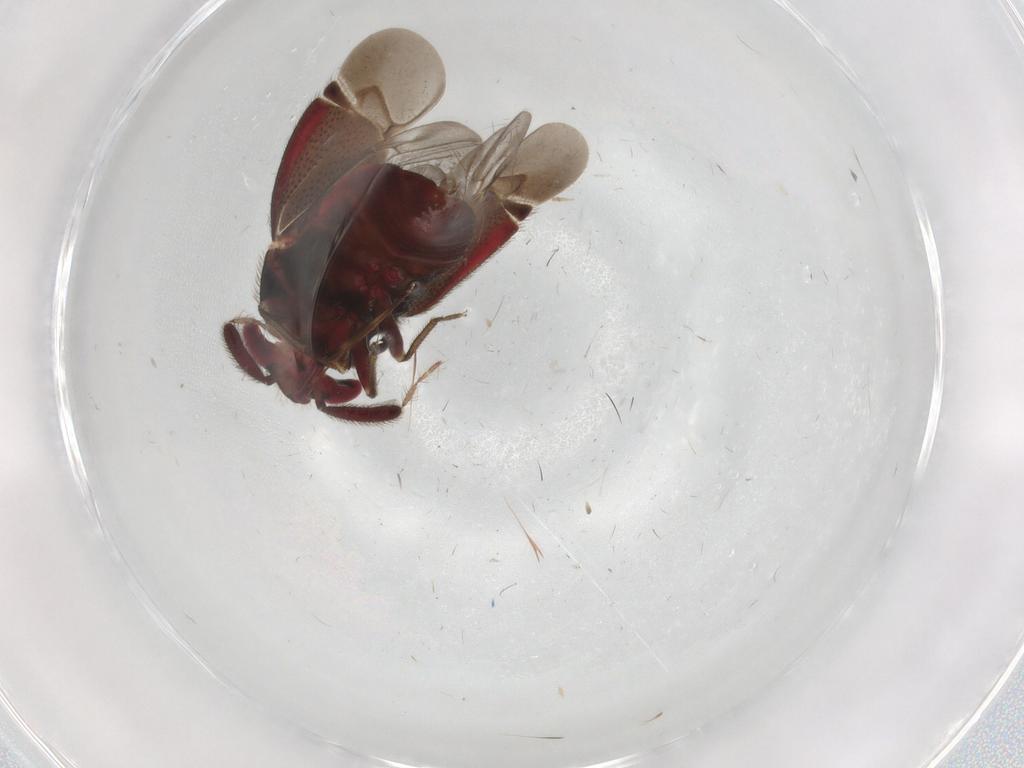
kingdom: Animalia
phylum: Arthropoda
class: Insecta
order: Hemiptera
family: Miridae
